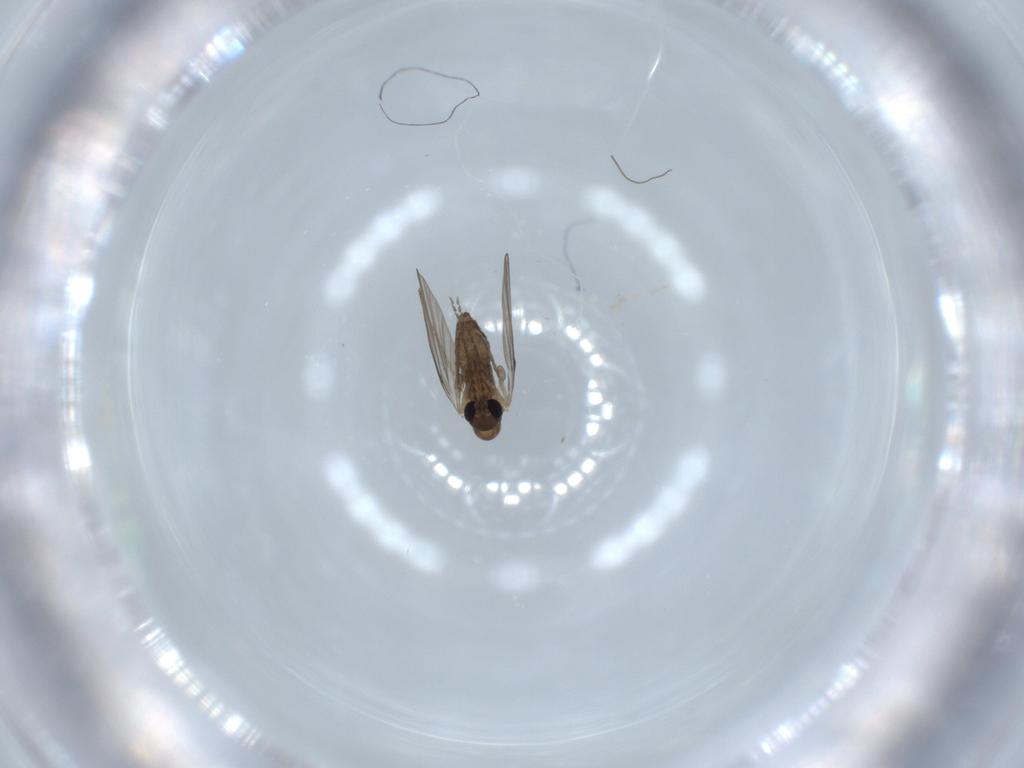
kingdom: Animalia
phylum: Arthropoda
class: Insecta
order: Diptera
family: Psychodidae
